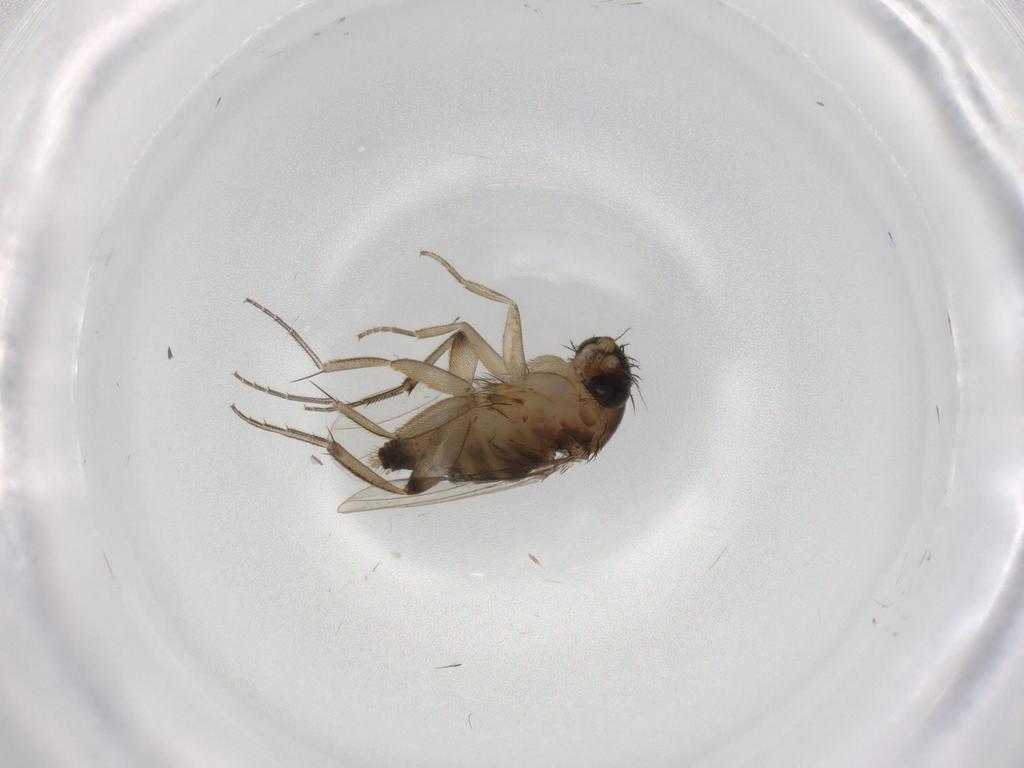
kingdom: Animalia
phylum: Arthropoda
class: Insecta
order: Diptera
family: Phoridae
